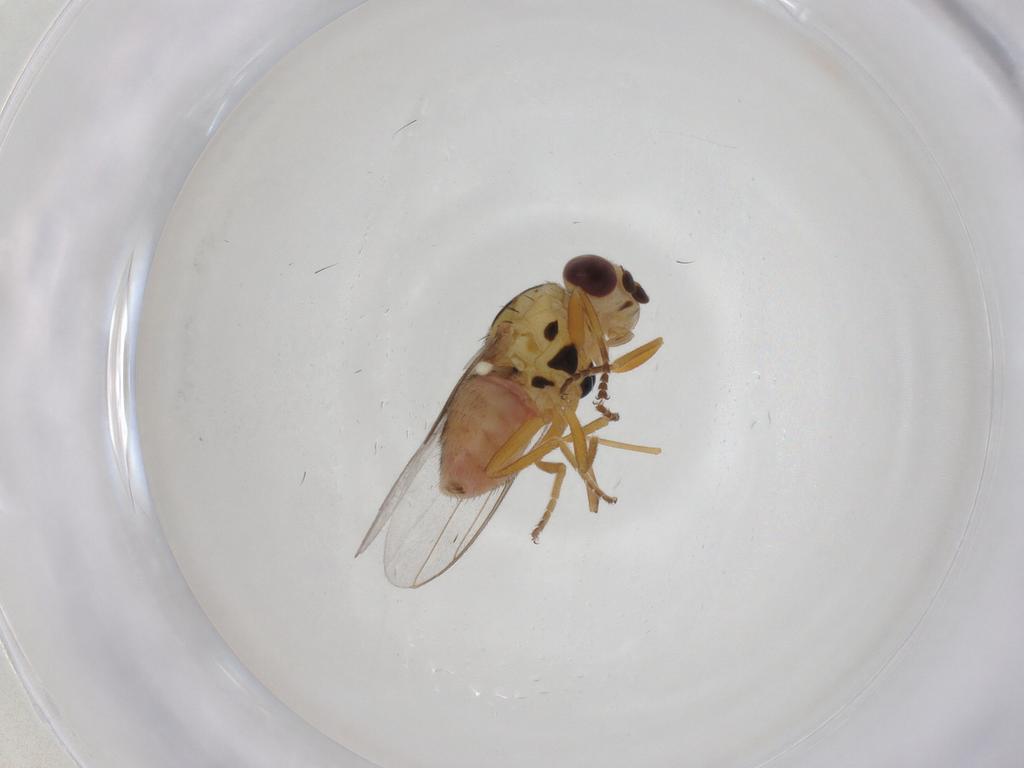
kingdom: Animalia
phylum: Arthropoda
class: Insecta
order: Diptera
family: Chloropidae
